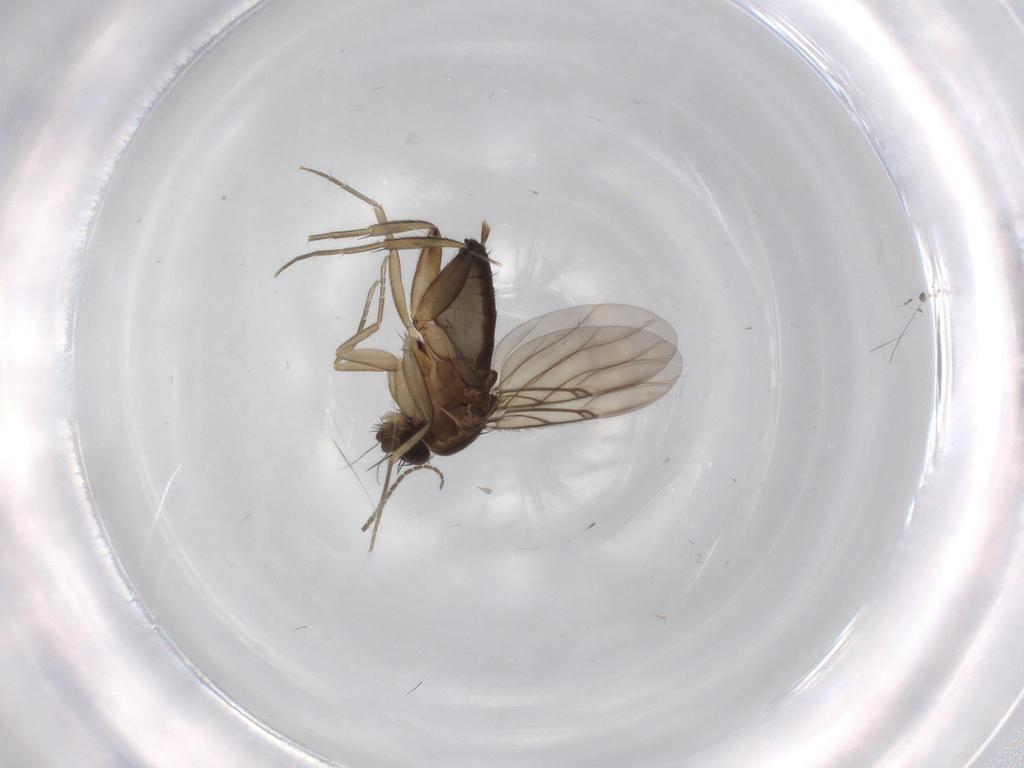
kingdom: Animalia
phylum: Arthropoda
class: Insecta
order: Diptera
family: Phoridae
